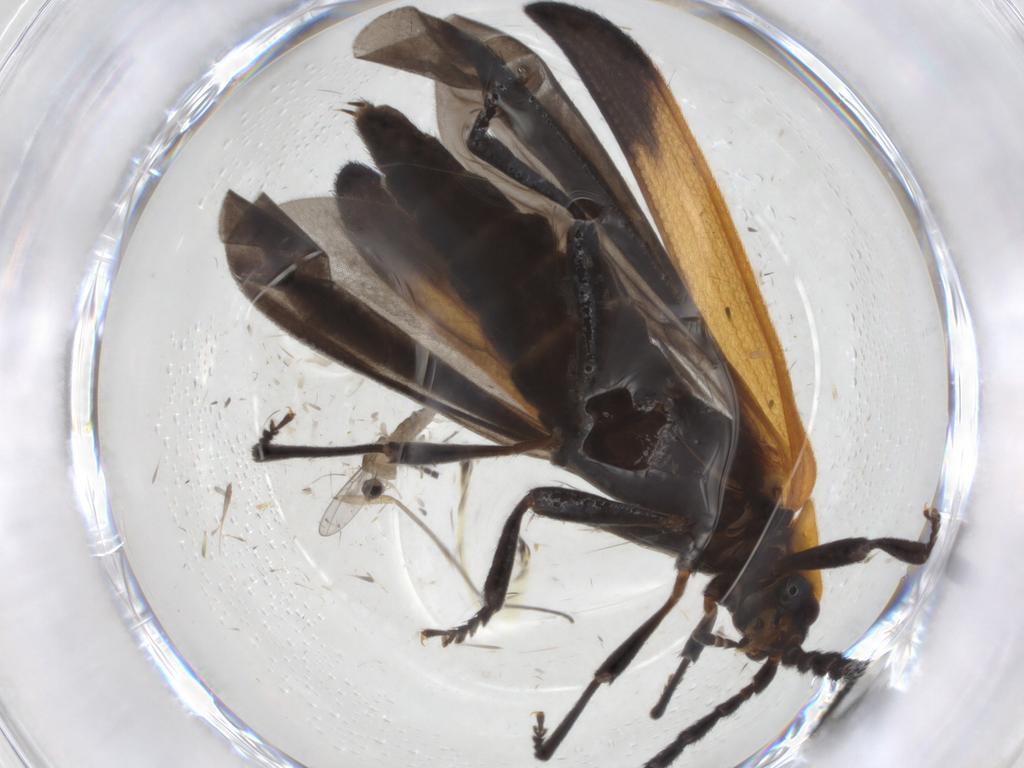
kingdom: Animalia
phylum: Arthropoda
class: Insecta
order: Coleoptera
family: Lycidae
